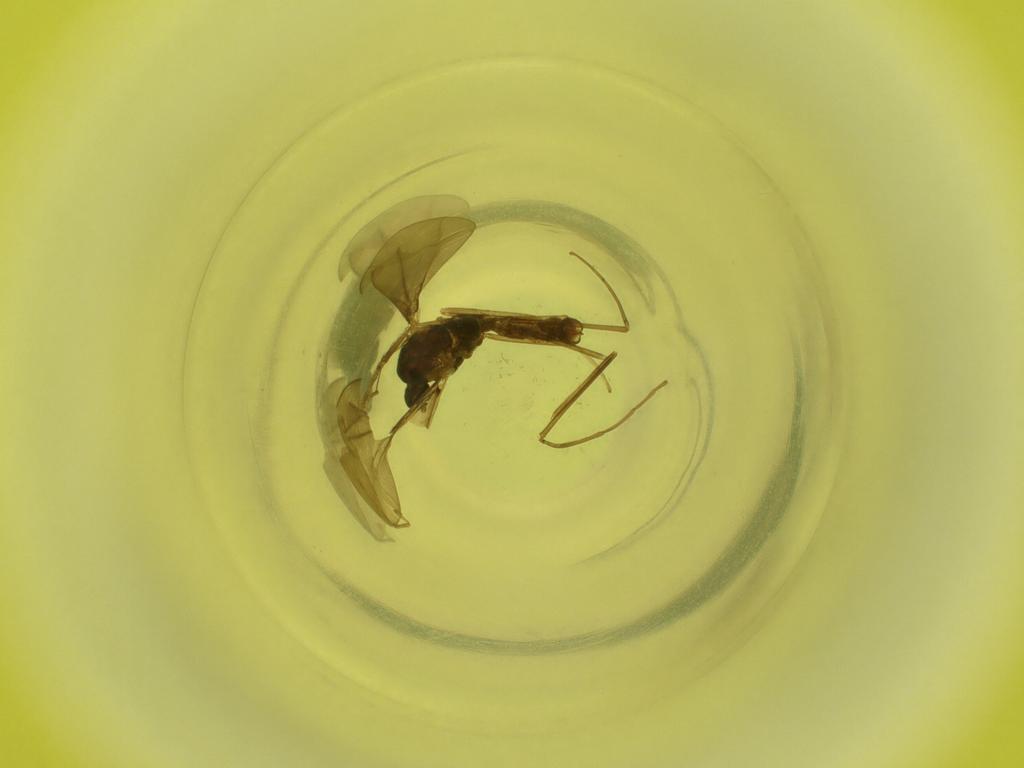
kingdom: Animalia
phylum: Arthropoda
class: Insecta
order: Diptera
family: Cecidomyiidae
